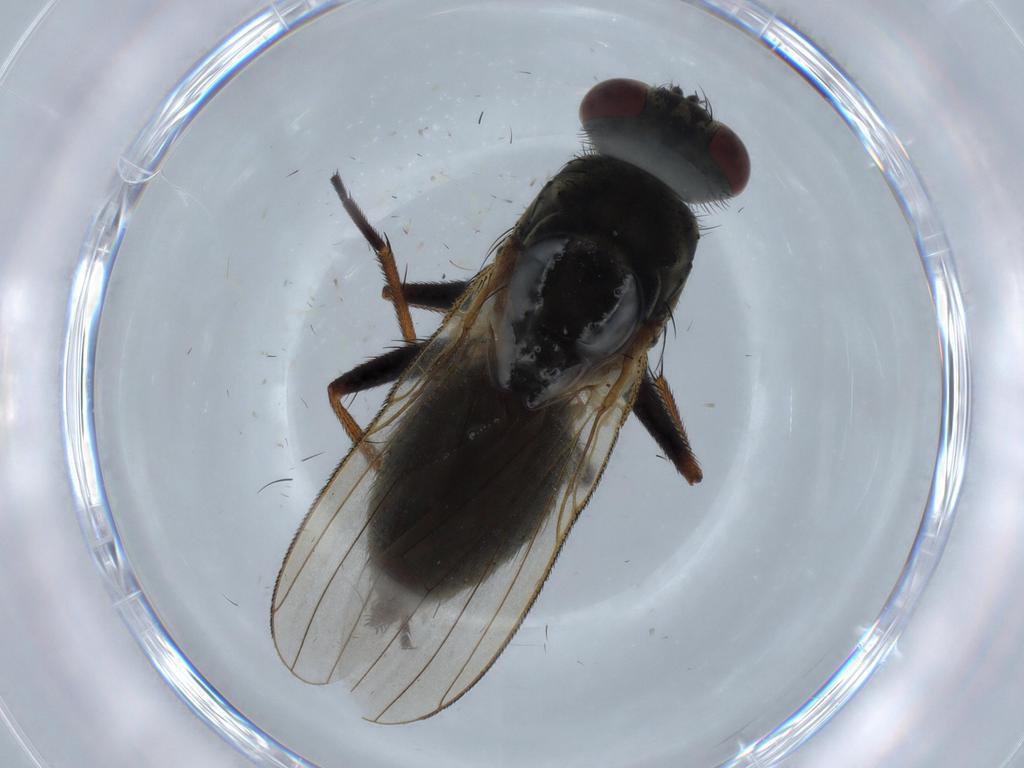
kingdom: Animalia
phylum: Arthropoda
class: Insecta
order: Diptera
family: Muscidae
